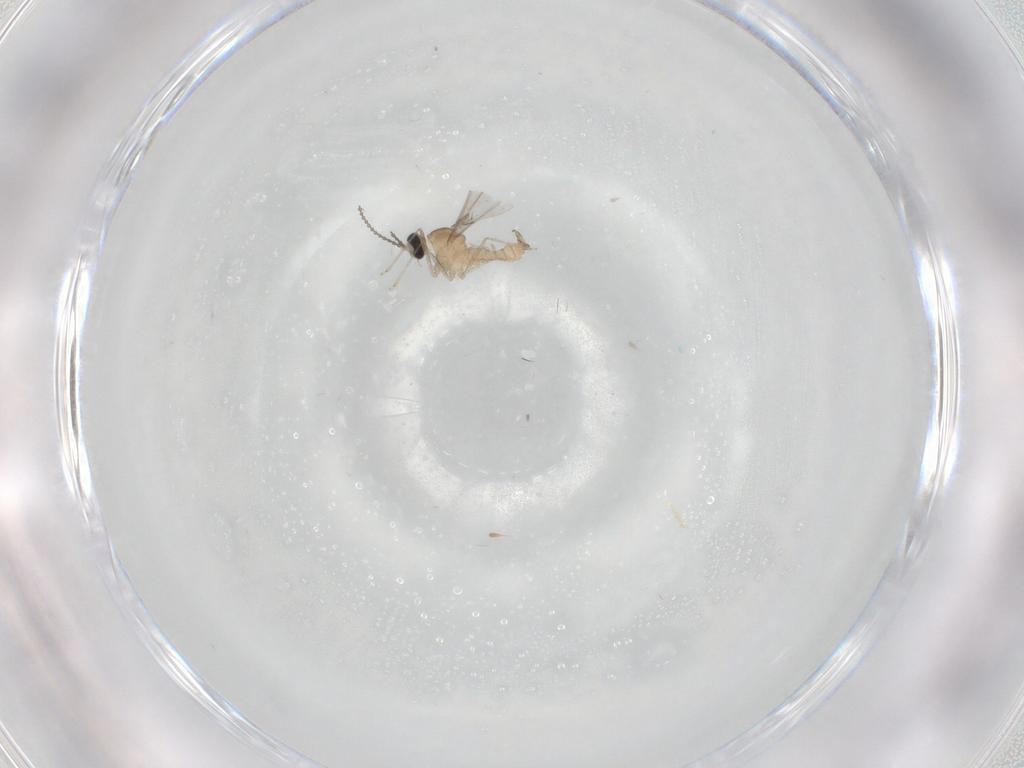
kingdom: Animalia
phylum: Arthropoda
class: Insecta
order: Diptera
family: Cecidomyiidae
